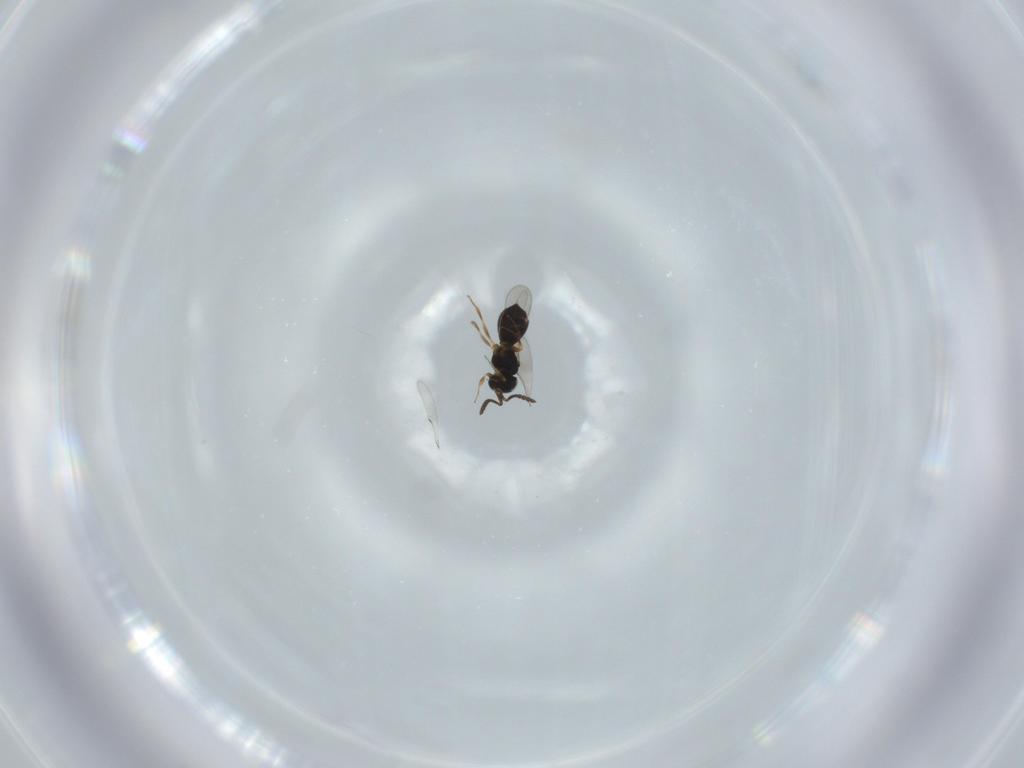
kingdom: Animalia
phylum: Arthropoda
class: Insecta
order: Hymenoptera
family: Scelionidae
